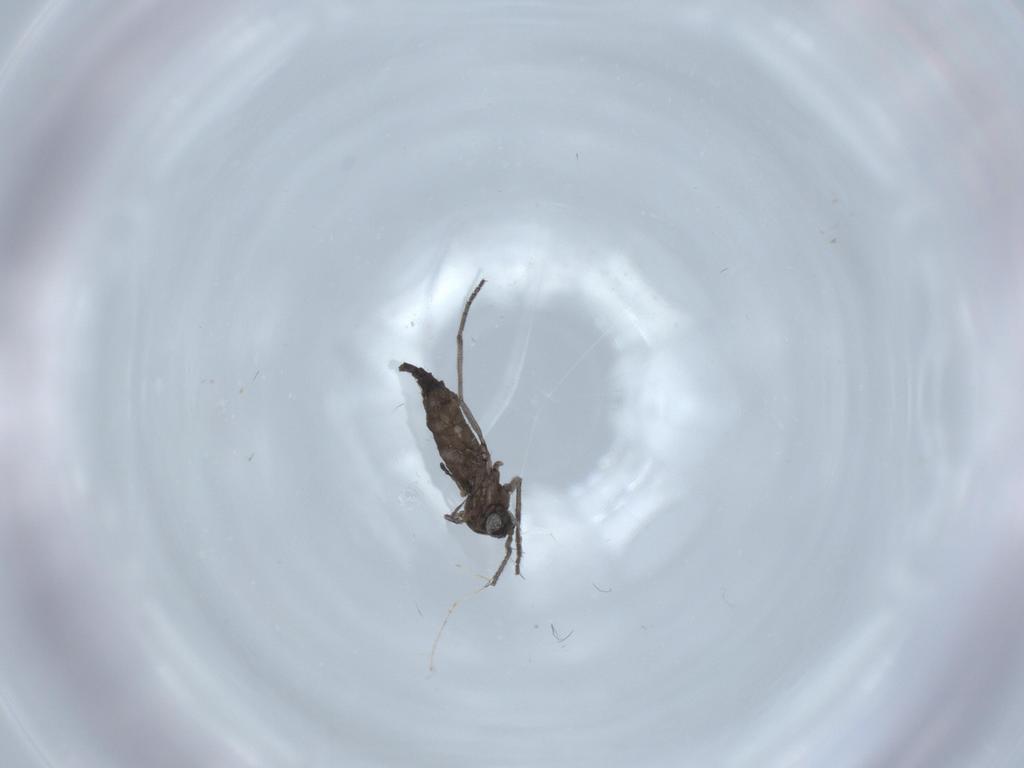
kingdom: Animalia
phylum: Arthropoda
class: Insecta
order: Diptera
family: Sciaridae
